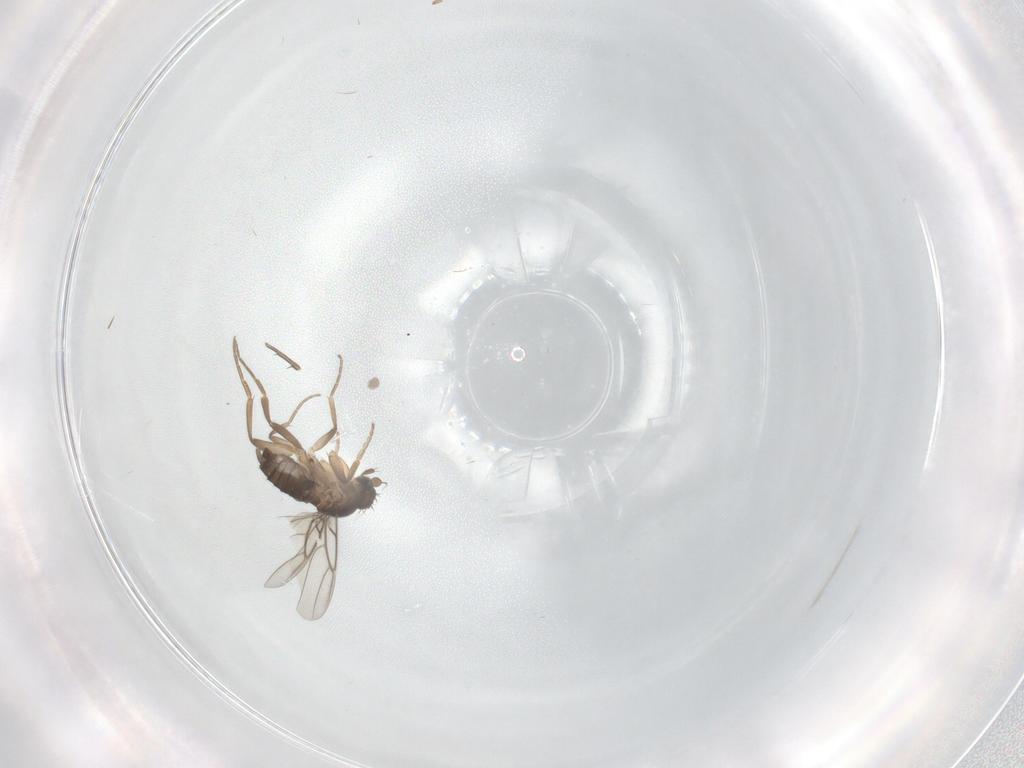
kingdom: Animalia
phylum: Arthropoda
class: Insecta
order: Diptera
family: Phoridae
